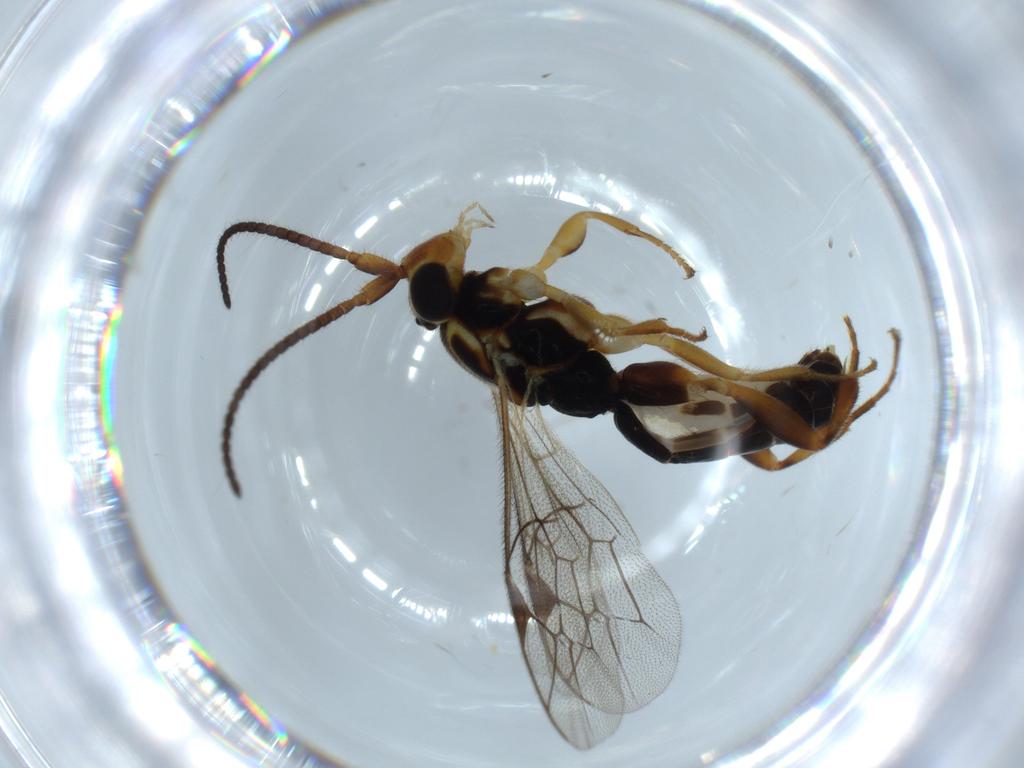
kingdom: Animalia
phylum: Arthropoda
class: Insecta
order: Hymenoptera
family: Ichneumonidae
